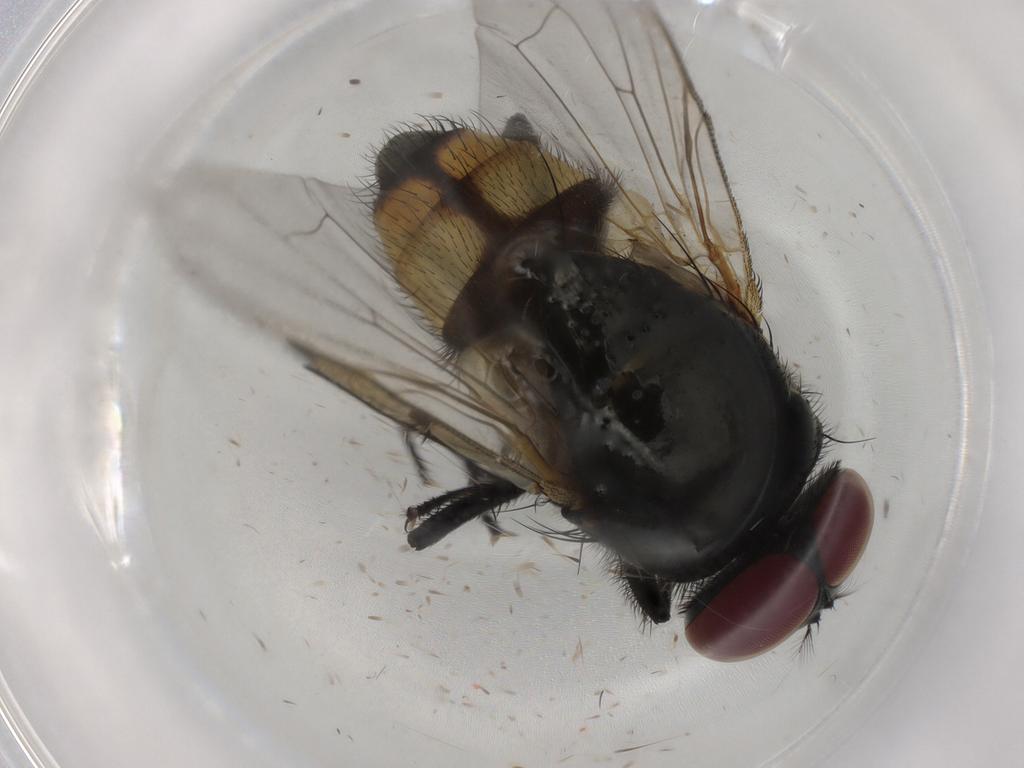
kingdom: Animalia
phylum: Arthropoda
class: Insecta
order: Diptera
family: Muscidae
